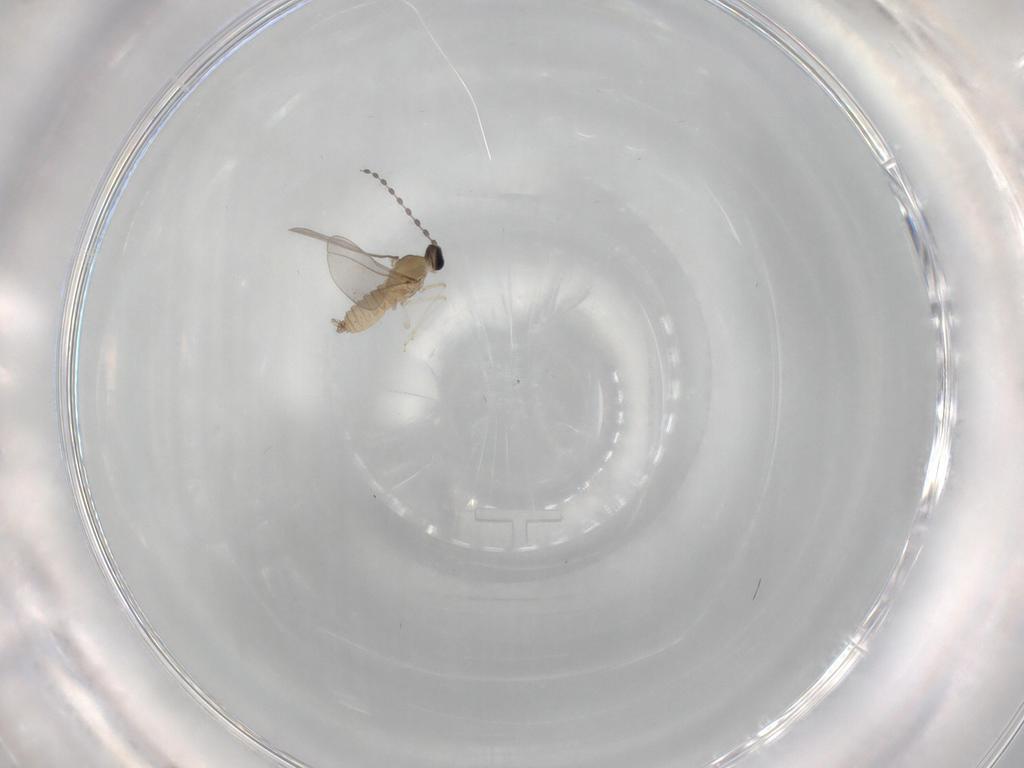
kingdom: Animalia
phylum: Arthropoda
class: Insecta
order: Diptera
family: Cecidomyiidae
